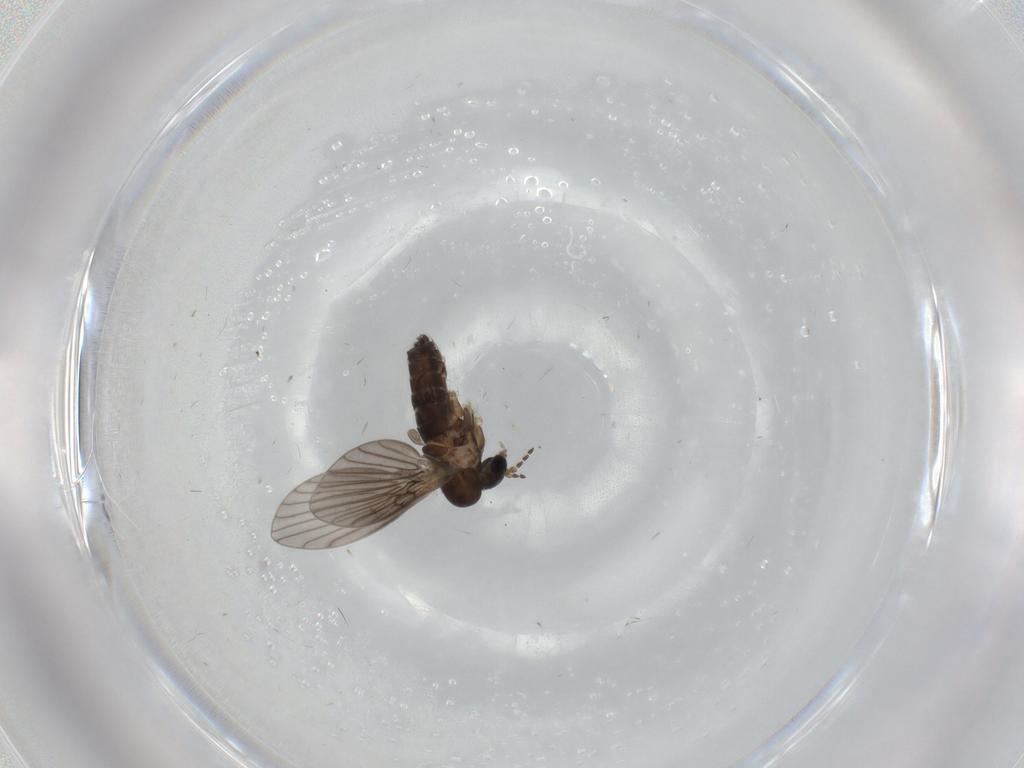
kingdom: Animalia
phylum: Arthropoda
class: Insecta
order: Diptera
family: Ceratopogonidae
